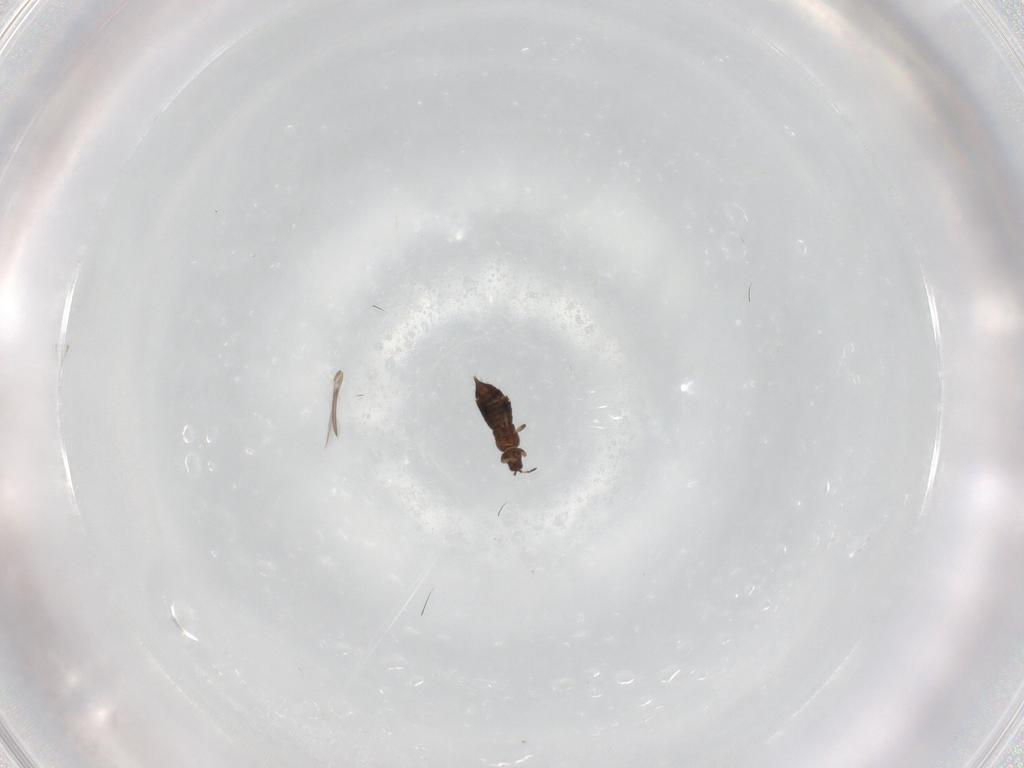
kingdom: Animalia
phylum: Arthropoda
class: Insecta
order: Thysanoptera
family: Thripidae
